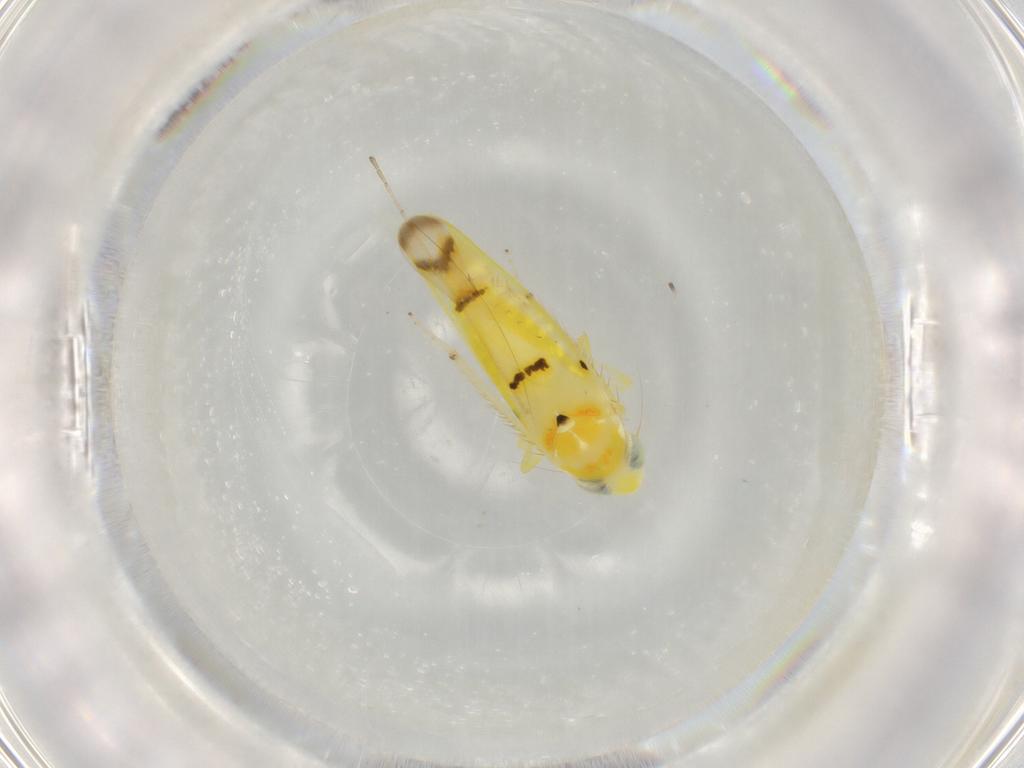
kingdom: Animalia
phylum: Arthropoda
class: Insecta
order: Hemiptera
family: Cicadellidae
